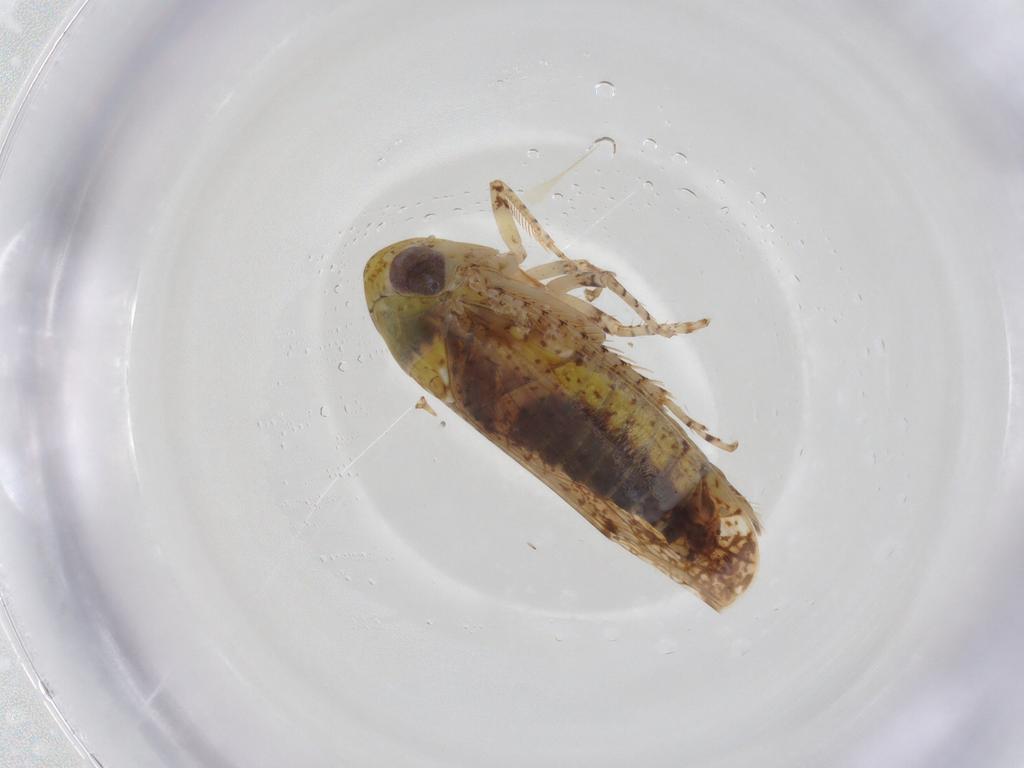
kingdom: Animalia
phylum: Arthropoda
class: Insecta
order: Hemiptera
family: Cicadellidae
